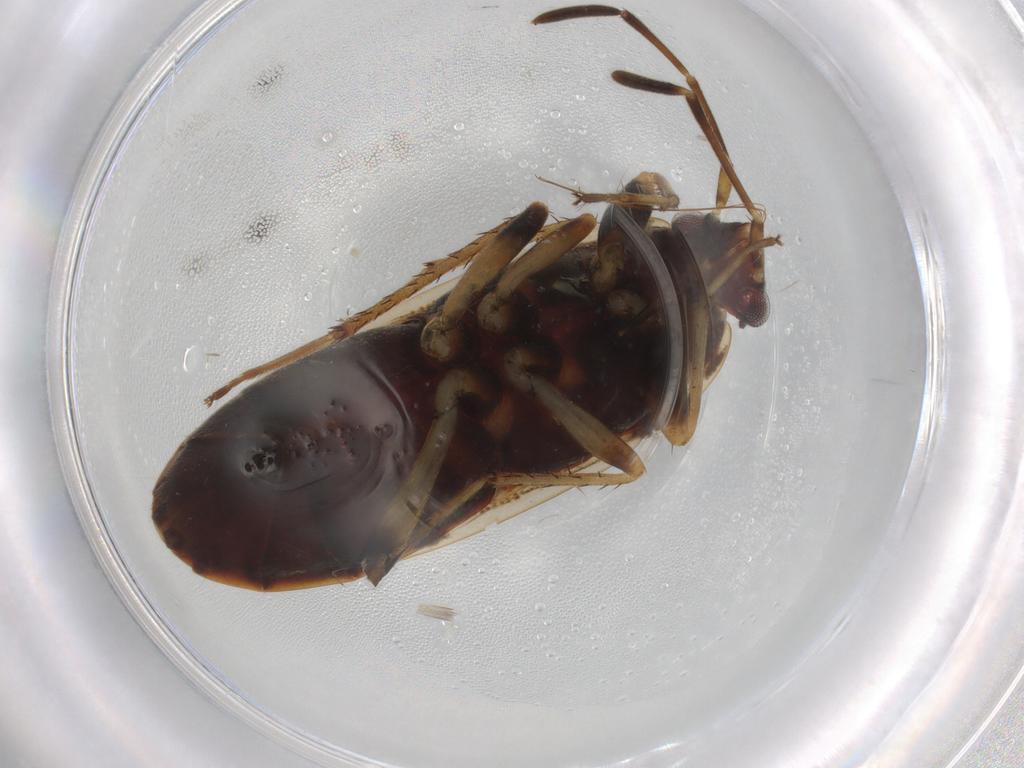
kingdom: Animalia
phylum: Arthropoda
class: Insecta
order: Hemiptera
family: Rhyparochromidae
